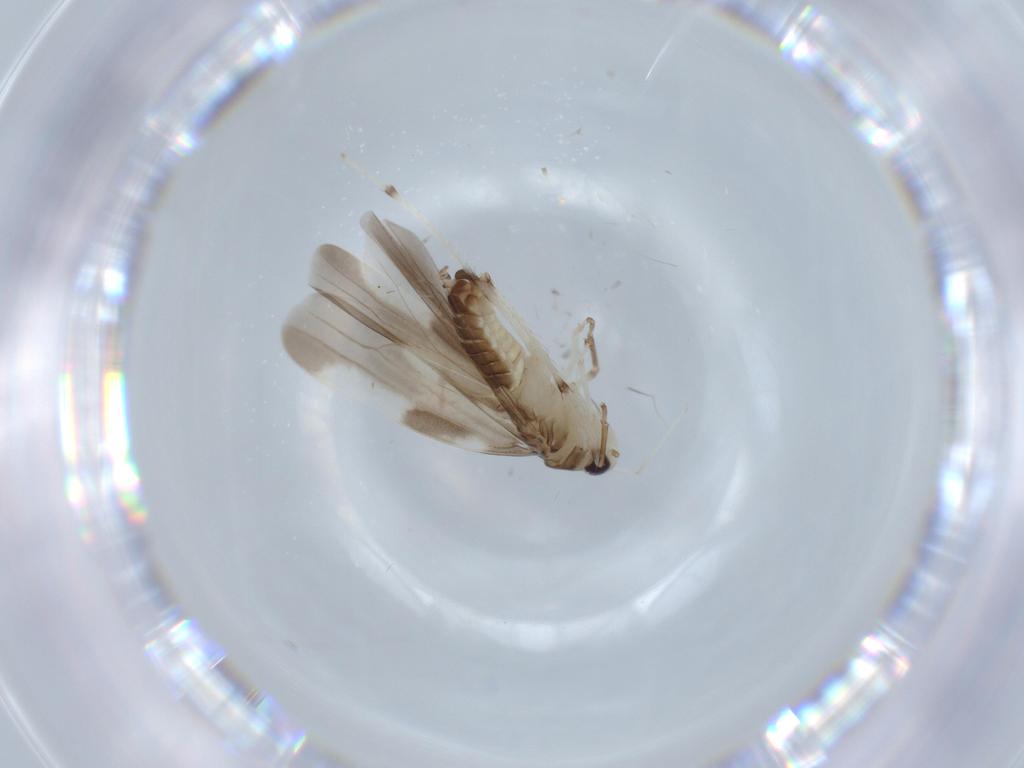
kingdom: Animalia
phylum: Arthropoda
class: Insecta
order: Hemiptera
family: Cicadellidae
